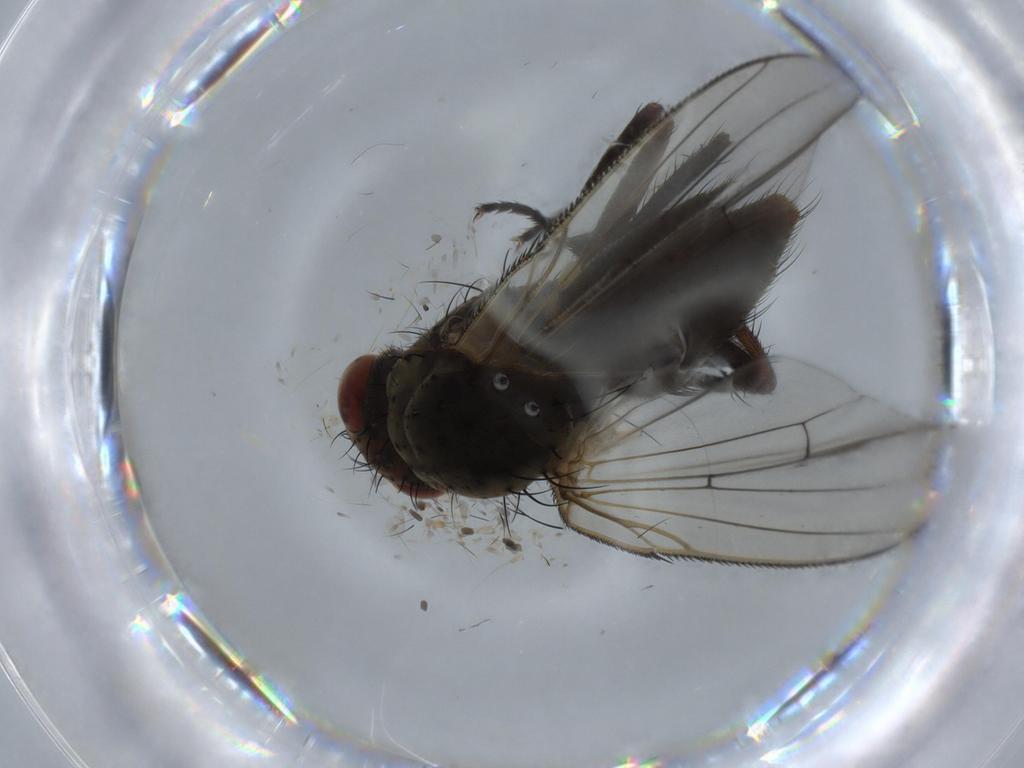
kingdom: Animalia
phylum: Arthropoda
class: Insecta
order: Diptera
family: Anthomyiidae
